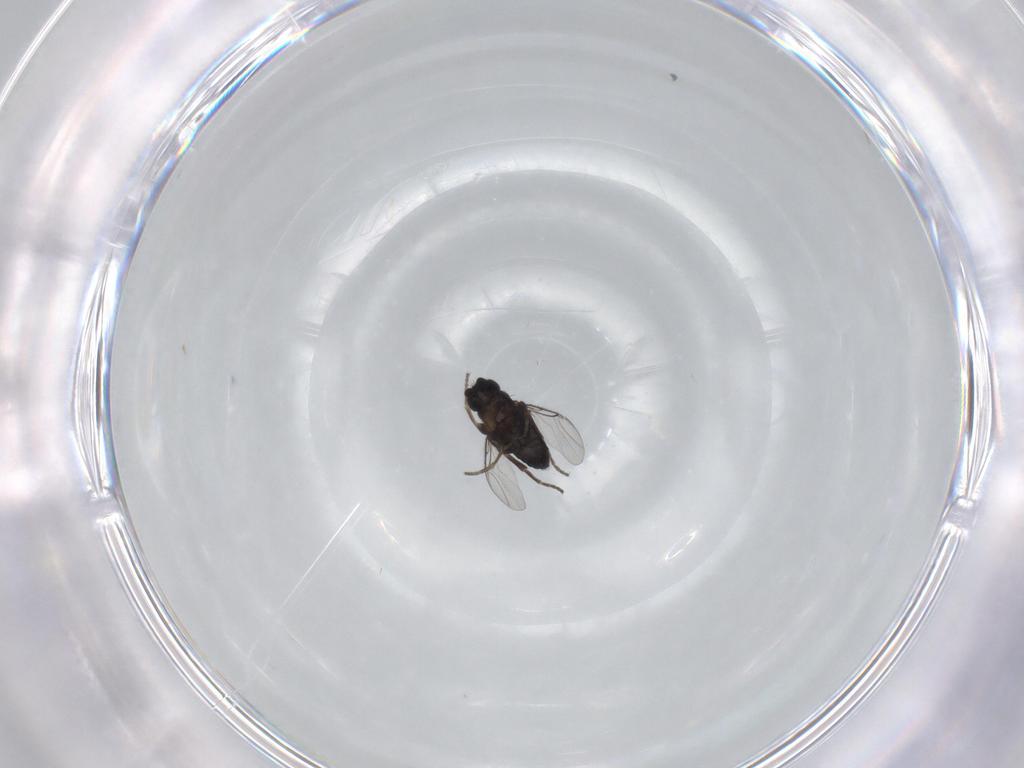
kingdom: Animalia
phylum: Arthropoda
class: Insecta
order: Diptera
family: Phoridae
